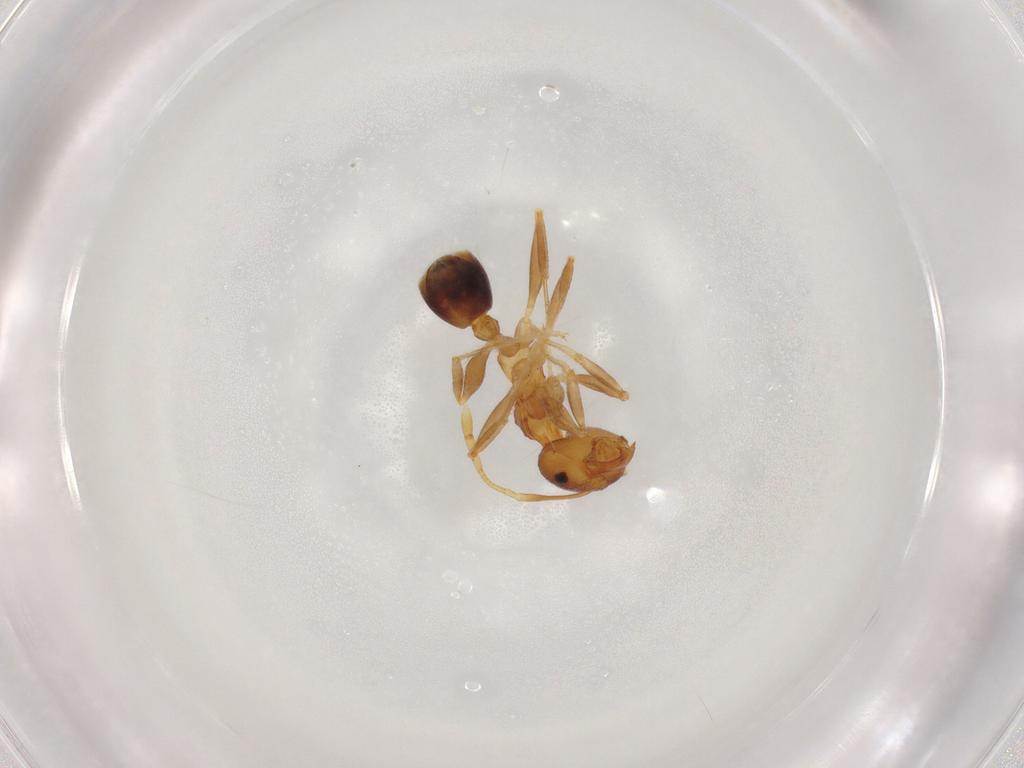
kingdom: Animalia
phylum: Arthropoda
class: Insecta
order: Hymenoptera
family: Formicidae
